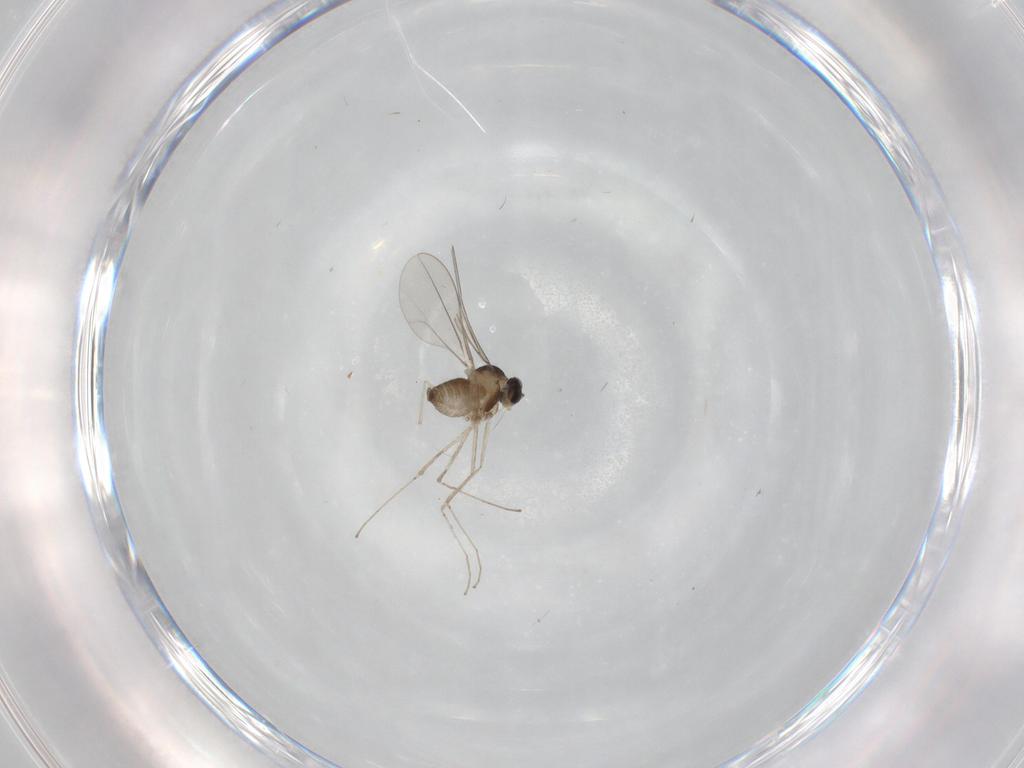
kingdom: Animalia
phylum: Arthropoda
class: Insecta
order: Diptera
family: Cecidomyiidae
